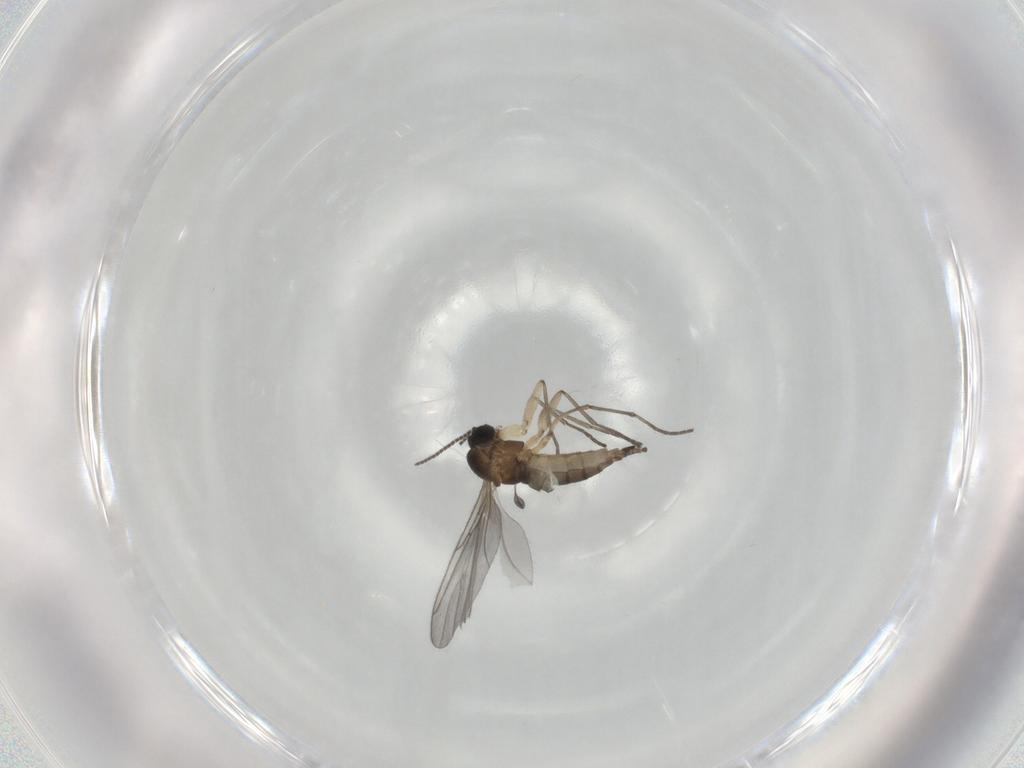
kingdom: Animalia
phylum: Arthropoda
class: Insecta
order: Diptera
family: Sciaridae
